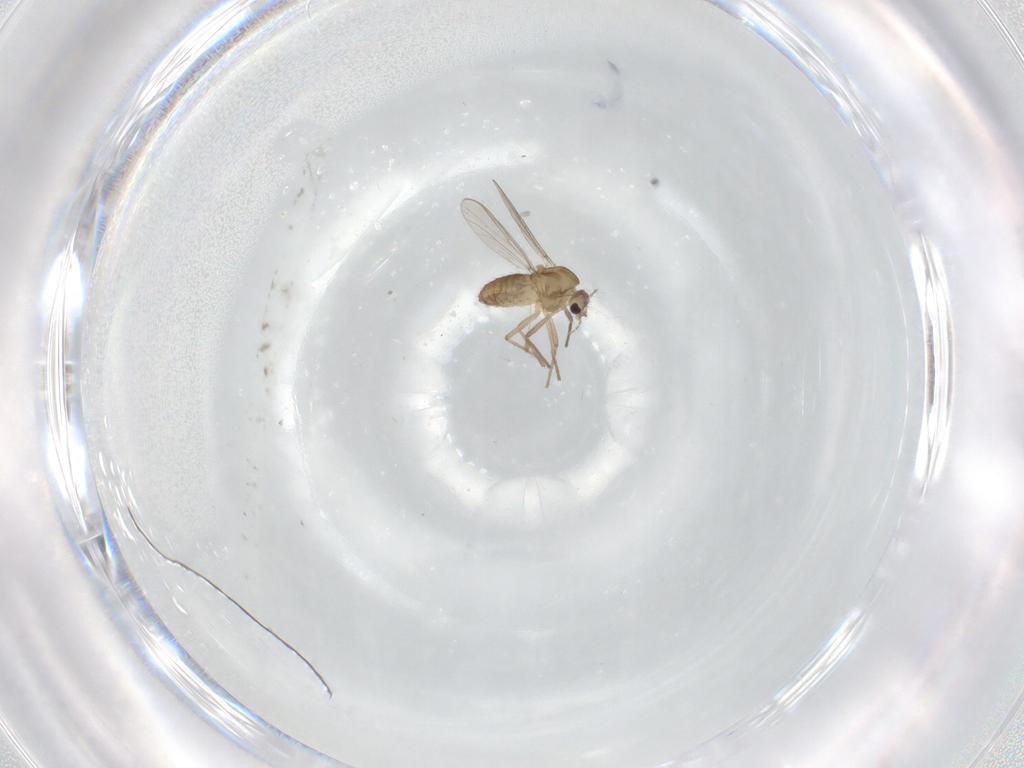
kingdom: Animalia
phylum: Arthropoda
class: Insecta
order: Diptera
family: Chironomidae
